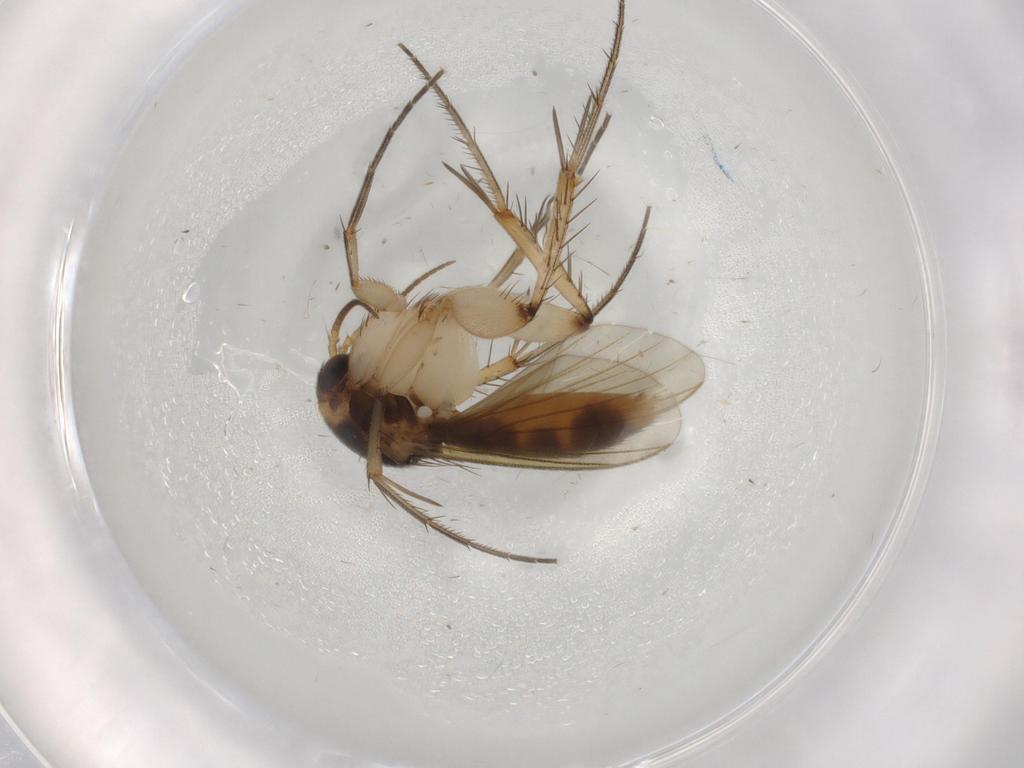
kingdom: Animalia
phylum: Arthropoda
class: Insecta
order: Diptera
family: Mycetophilidae
